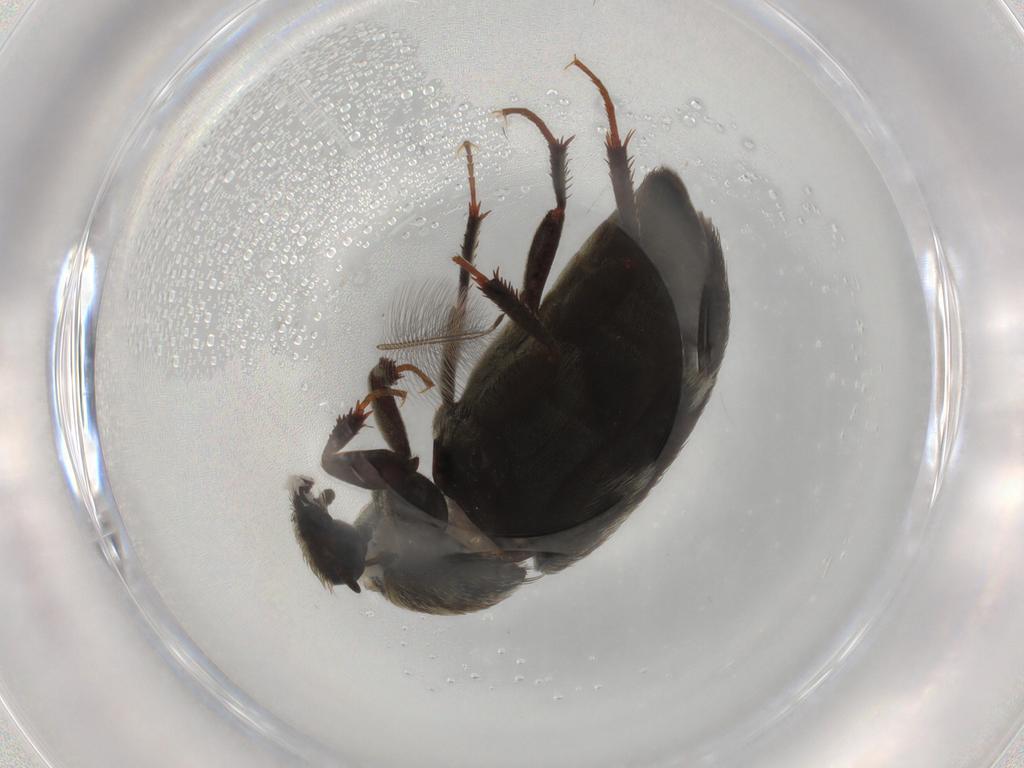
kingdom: Animalia
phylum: Arthropoda
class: Insecta
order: Coleoptera
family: Dermestidae
